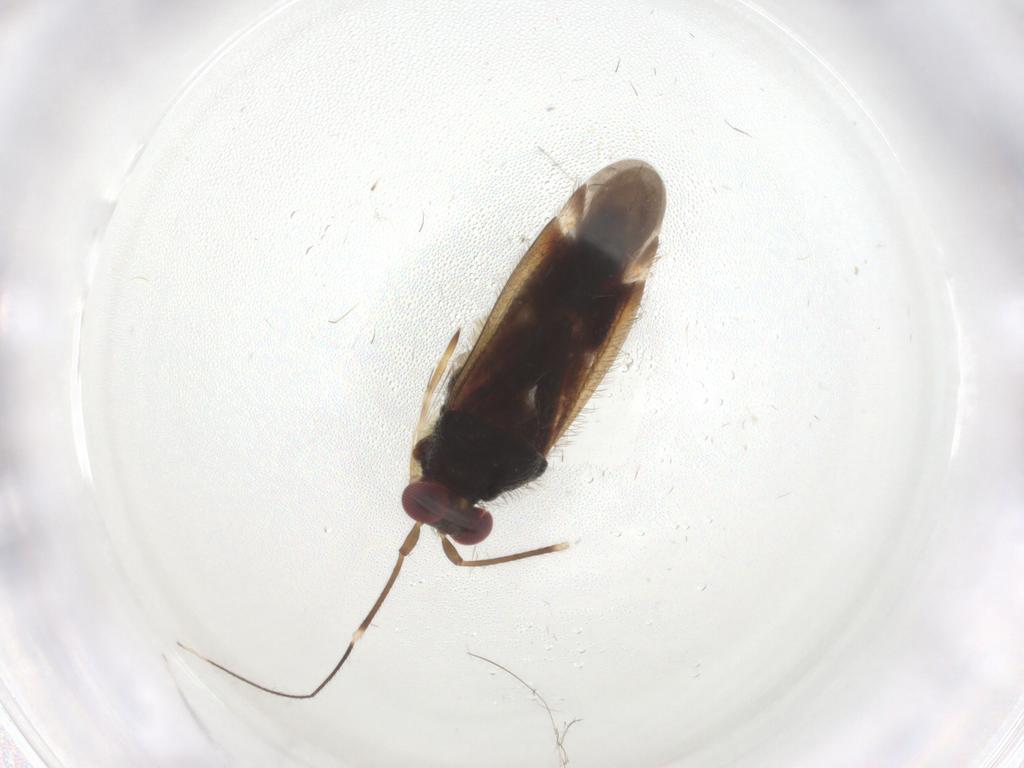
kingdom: Animalia
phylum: Arthropoda
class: Insecta
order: Hemiptera
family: Miridae
